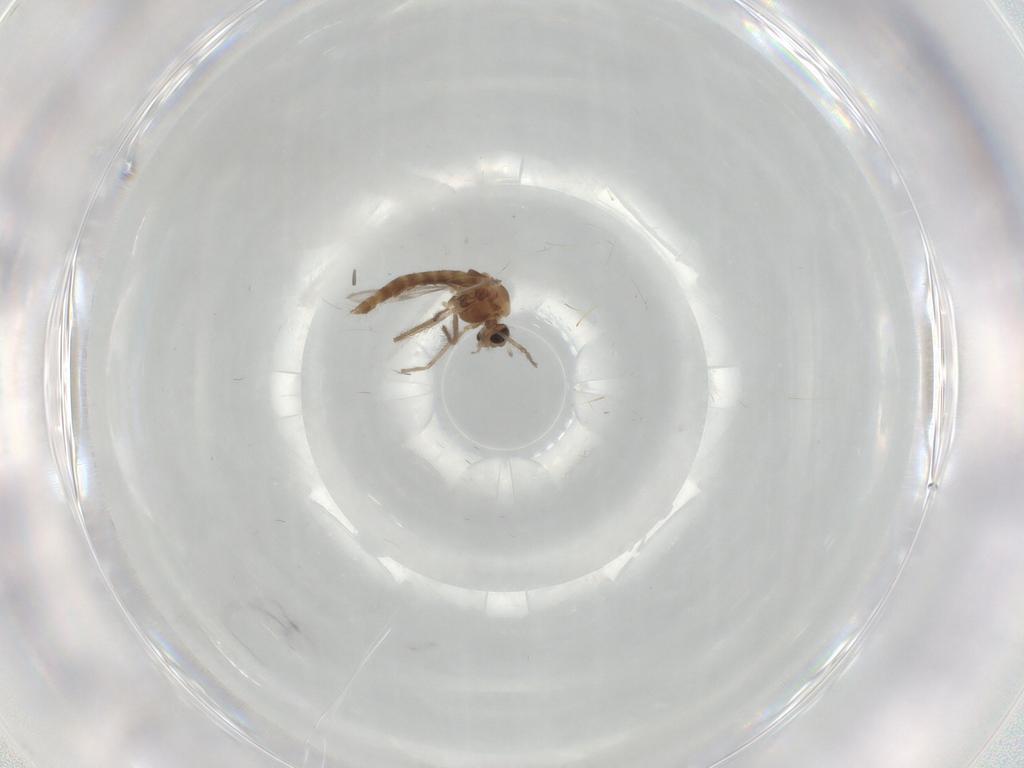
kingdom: Animalia
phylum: Arthropoda
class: Insecta
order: Diptera
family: Chironomidae
